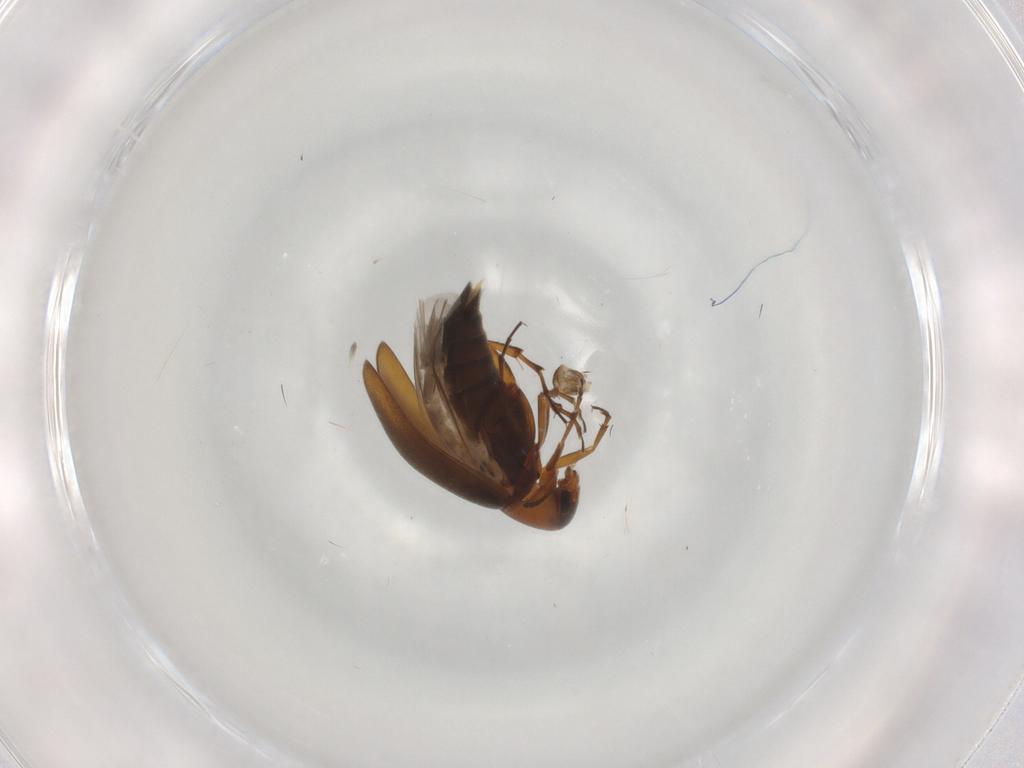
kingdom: Animalia
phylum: Arthropoda
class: Insecta
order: Coleoptera
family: Scraptiidae
